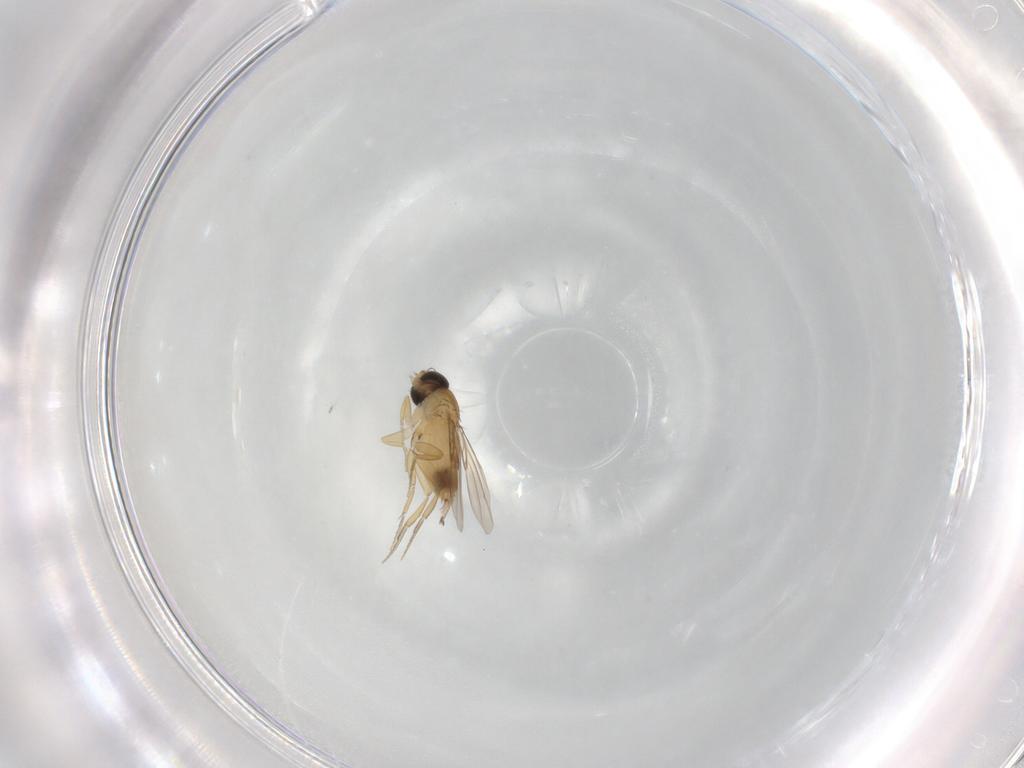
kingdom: Animalia
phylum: Arthropoda
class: Insecta
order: Diptera
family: Phoridae
